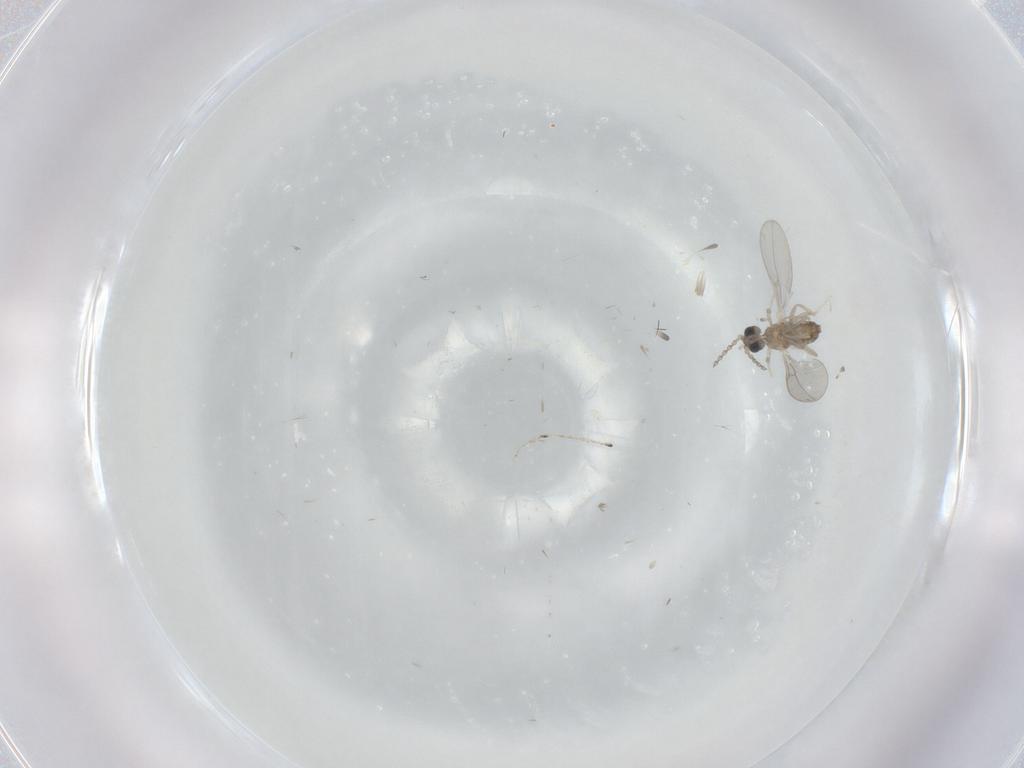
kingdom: Animalia
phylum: Arthropoda
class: Insecta
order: Diptera
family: Cecidomyiidae
